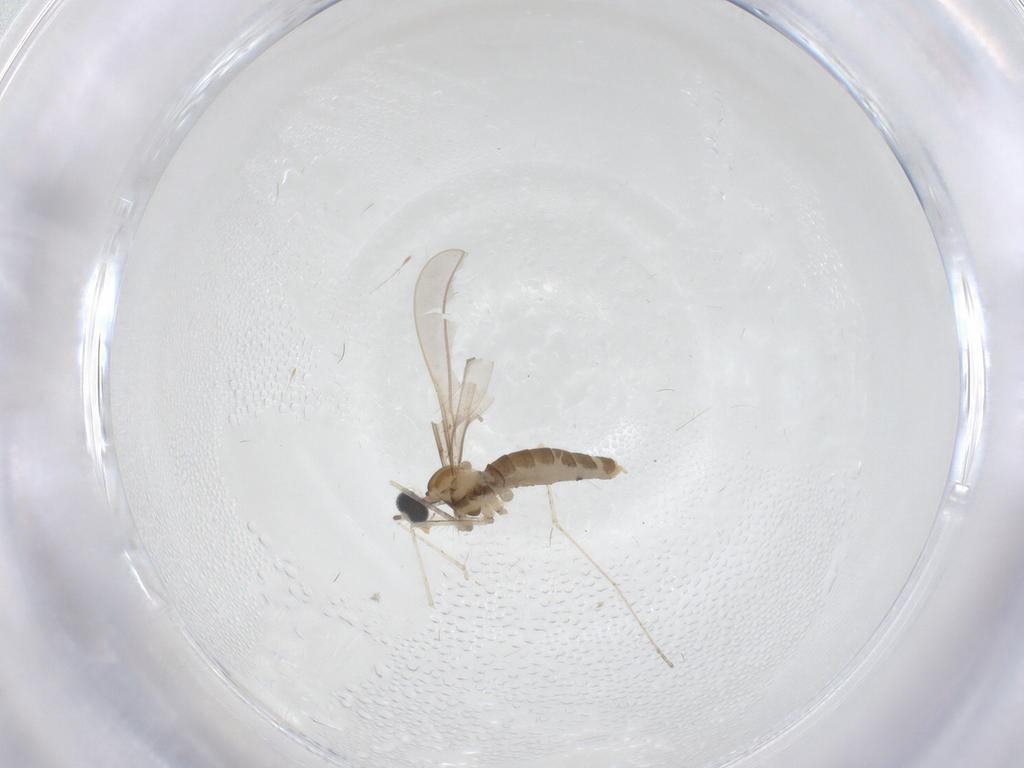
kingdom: Animalia
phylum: Arthropoda
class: Insecta
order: Diptera
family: Cecidomyiidae
